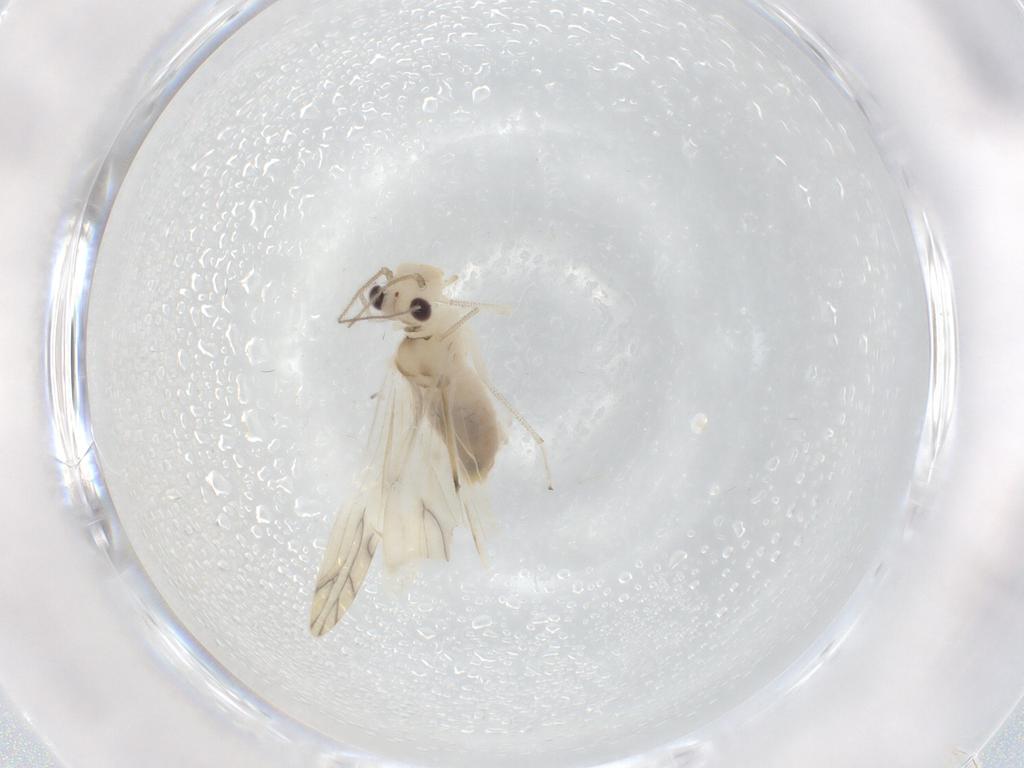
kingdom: Animalia
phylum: Arthropoda
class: Insecta
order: Psocodea
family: Caeciliusidae
